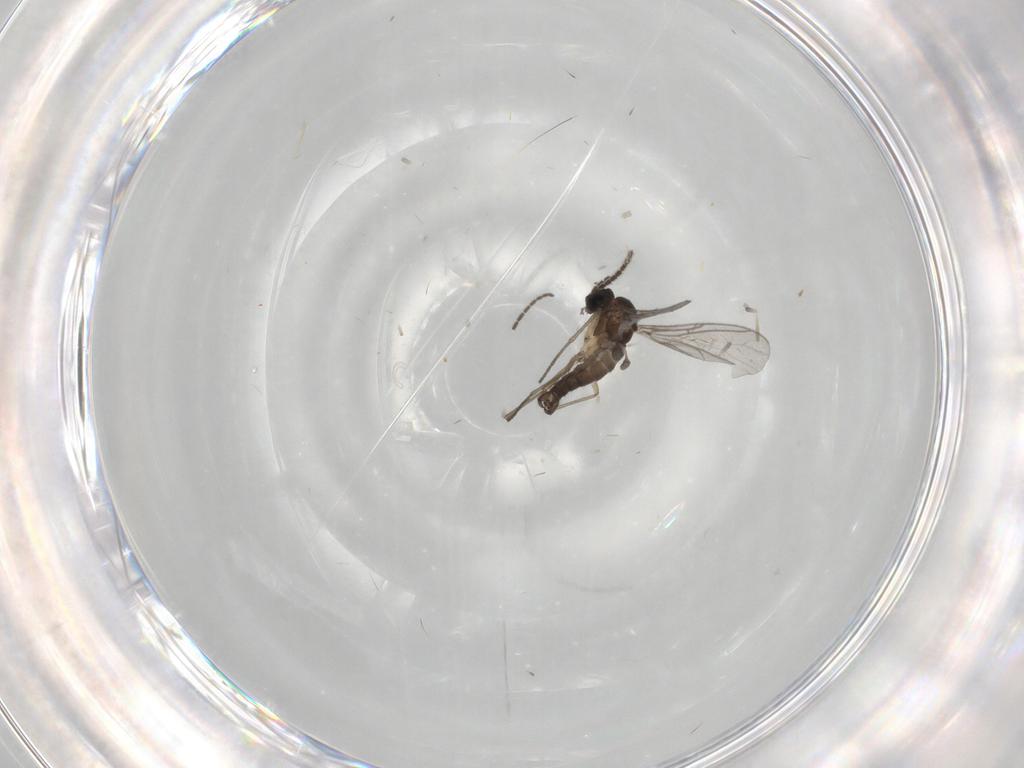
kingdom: Animalia
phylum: Arthropoda
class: Insecta
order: Diptera
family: Sciaridae
